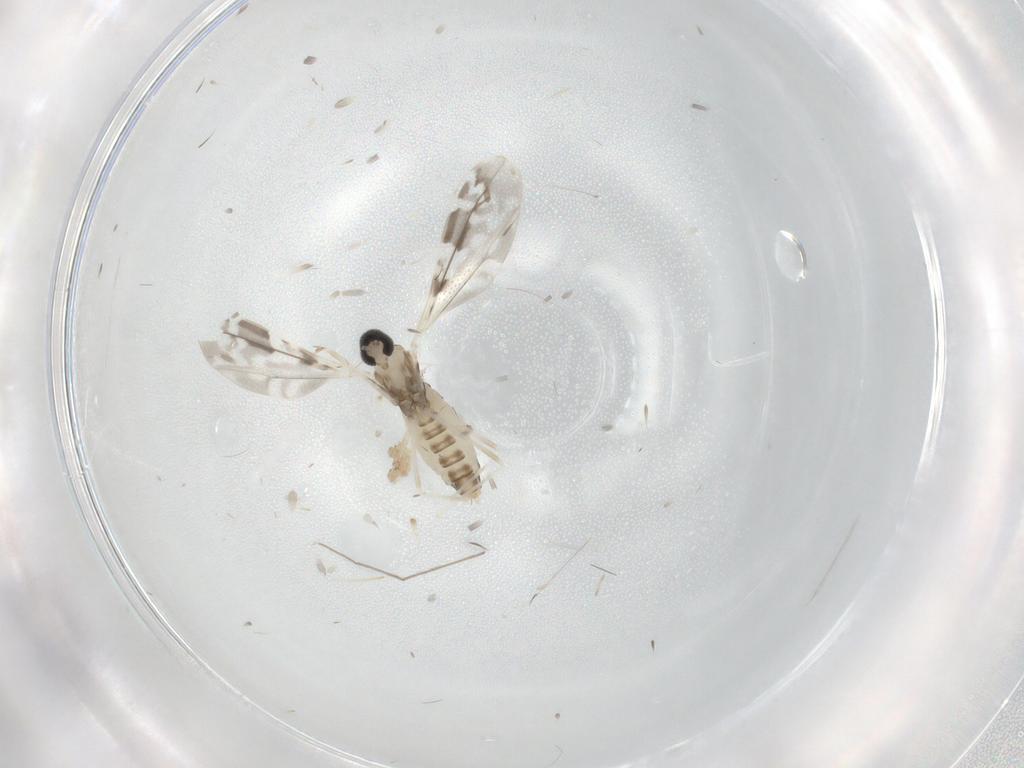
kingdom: Animalia
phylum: Arthropoda
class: Insecta
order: Diptera
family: Cecidomyiidae
